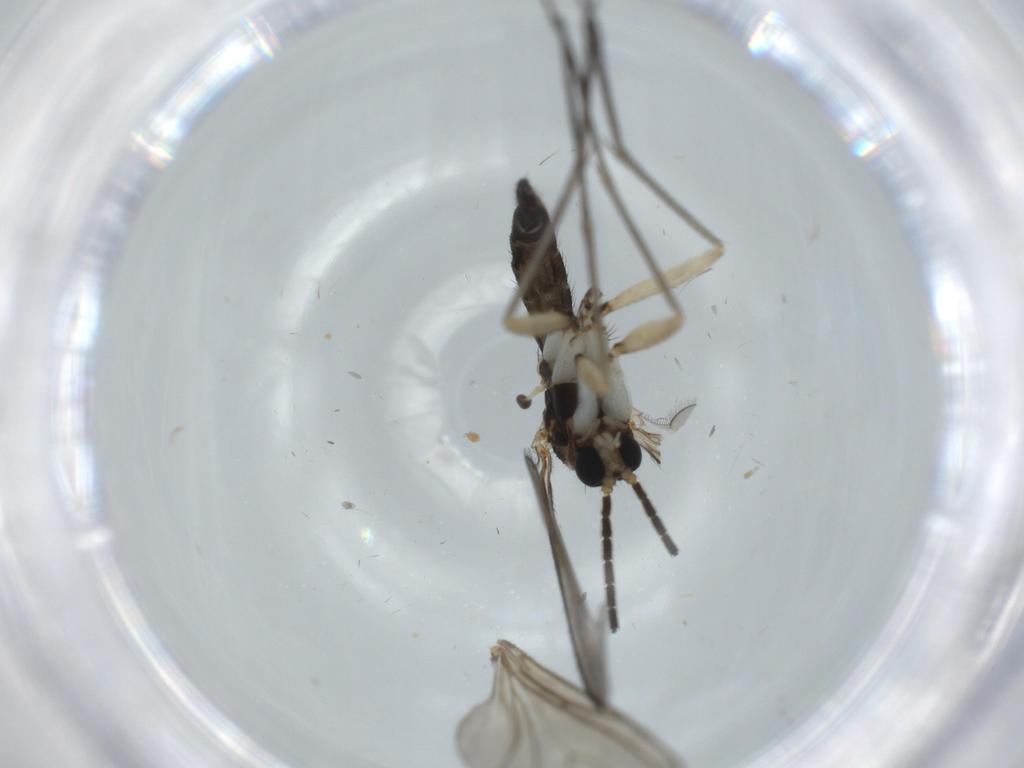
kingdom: Animalia
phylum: Arthropoda
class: Insecta
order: Diptera
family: Sciaridae
